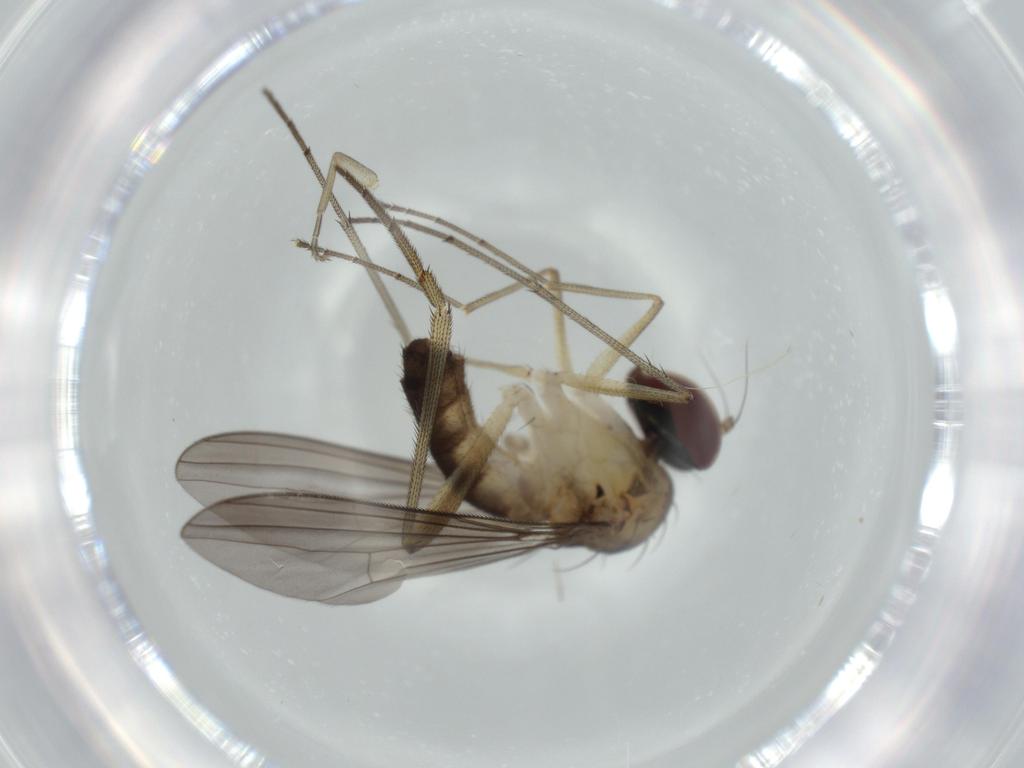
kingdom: Animalia
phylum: Arthropoda
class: Insecta
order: Diptera
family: Phoridae
